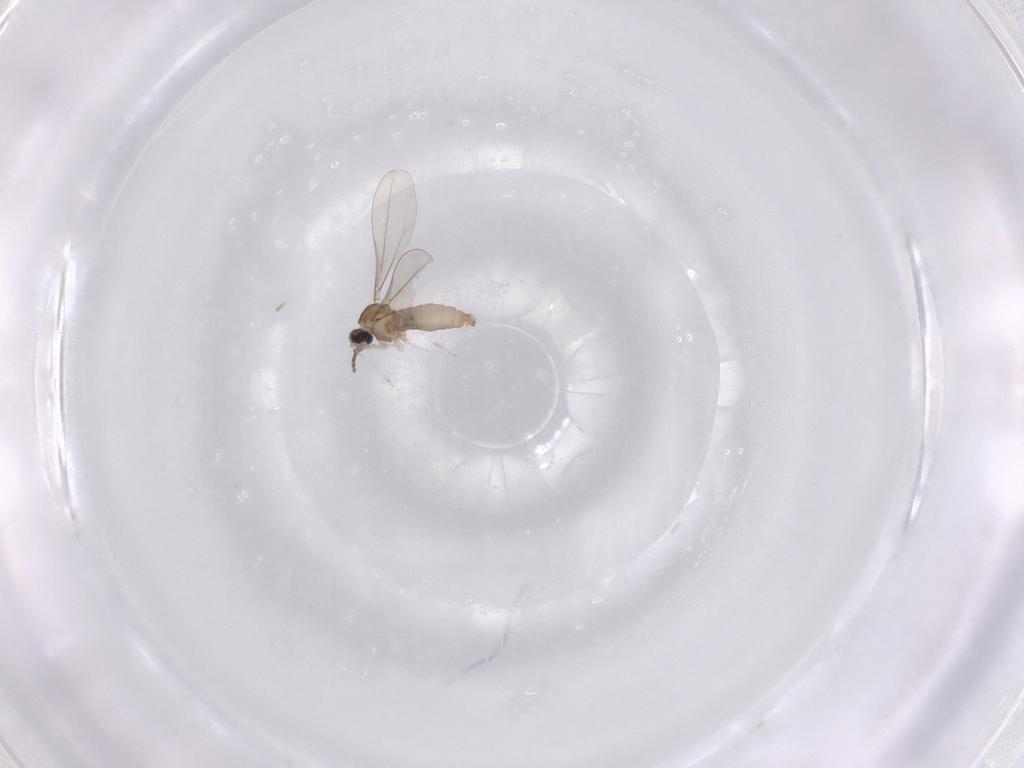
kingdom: Animalia
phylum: Arthropoda
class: Insecta
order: Diptera
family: Cecidomyiidae
